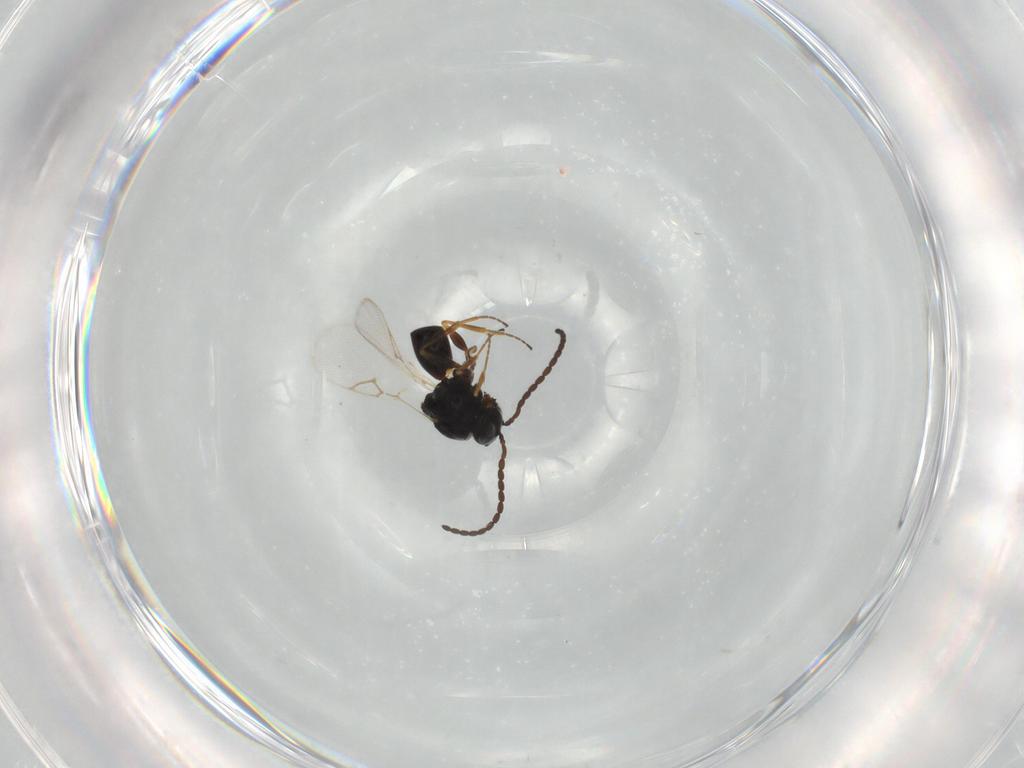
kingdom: Animalia
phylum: Arthropoda
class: Insecta
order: Hymenoptera
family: Figitidae
